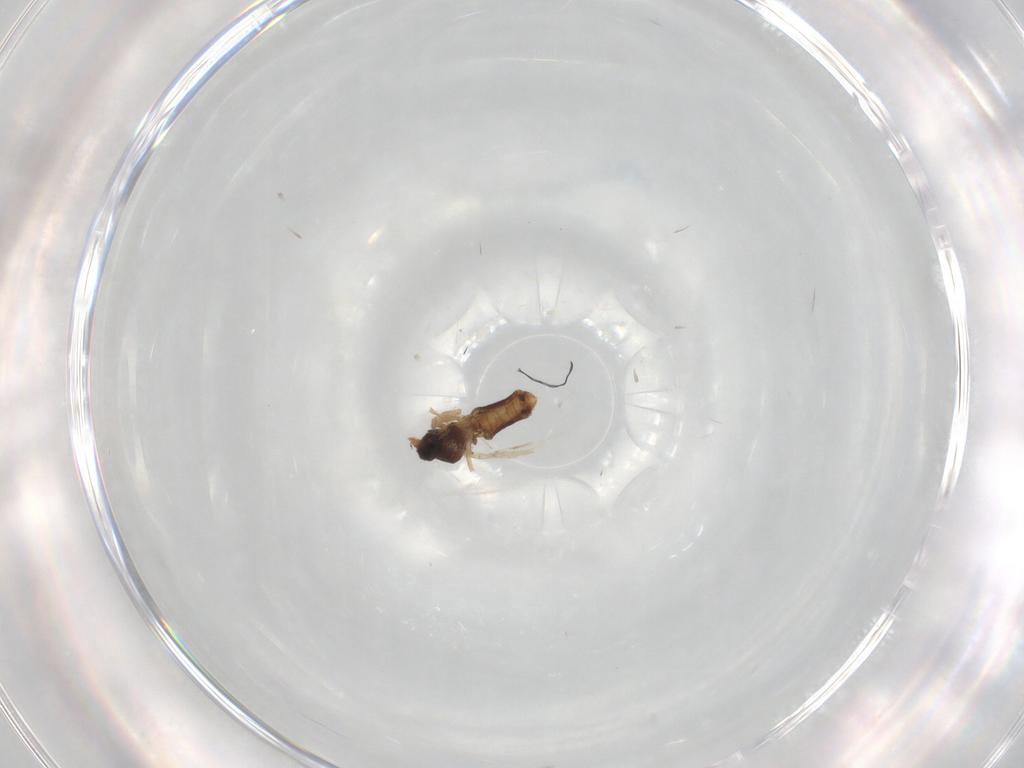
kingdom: Animalia
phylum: Arthropoda
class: Insecta
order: Diptera
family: Ceratopogonidae
